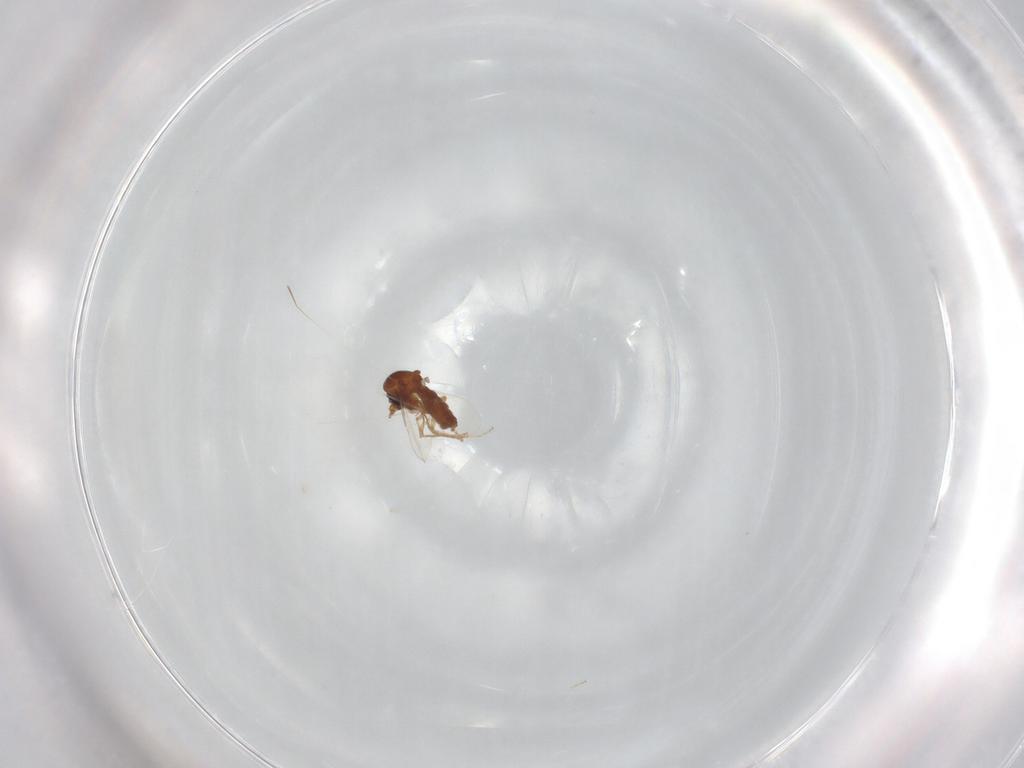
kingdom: Animalia
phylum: Arthropoda
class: Insecta
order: Diptera
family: Ceratopogonidae
